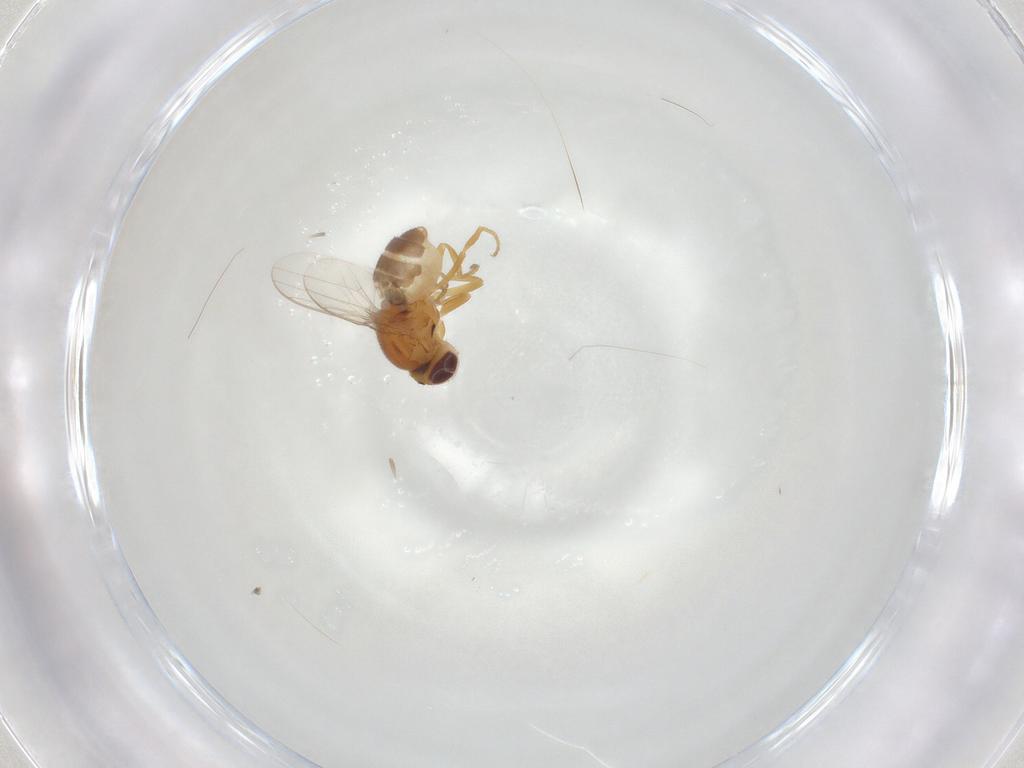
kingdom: Animalia
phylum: Arthropoda
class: Insecta
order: Diptera
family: Chloropidae
